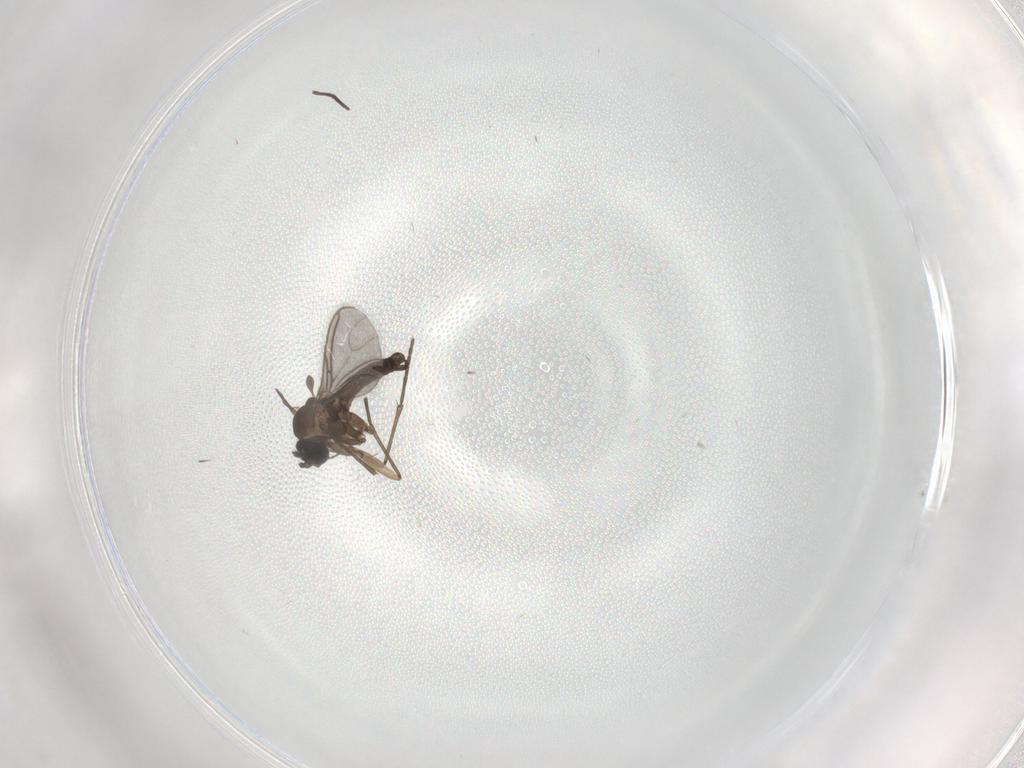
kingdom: Animalia
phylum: Arthropoda
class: Insecta
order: Diptera
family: Sciaridae
